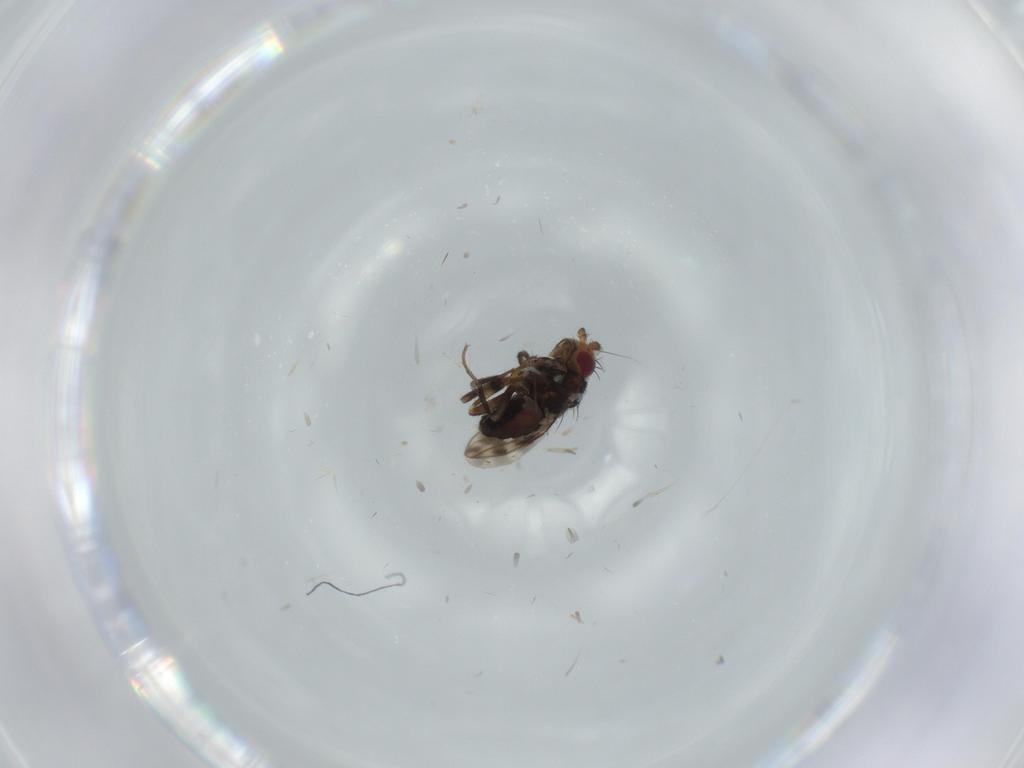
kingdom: Animalia
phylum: Arthropoda
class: Insecta
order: Diptera
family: Sphaeroceridae
